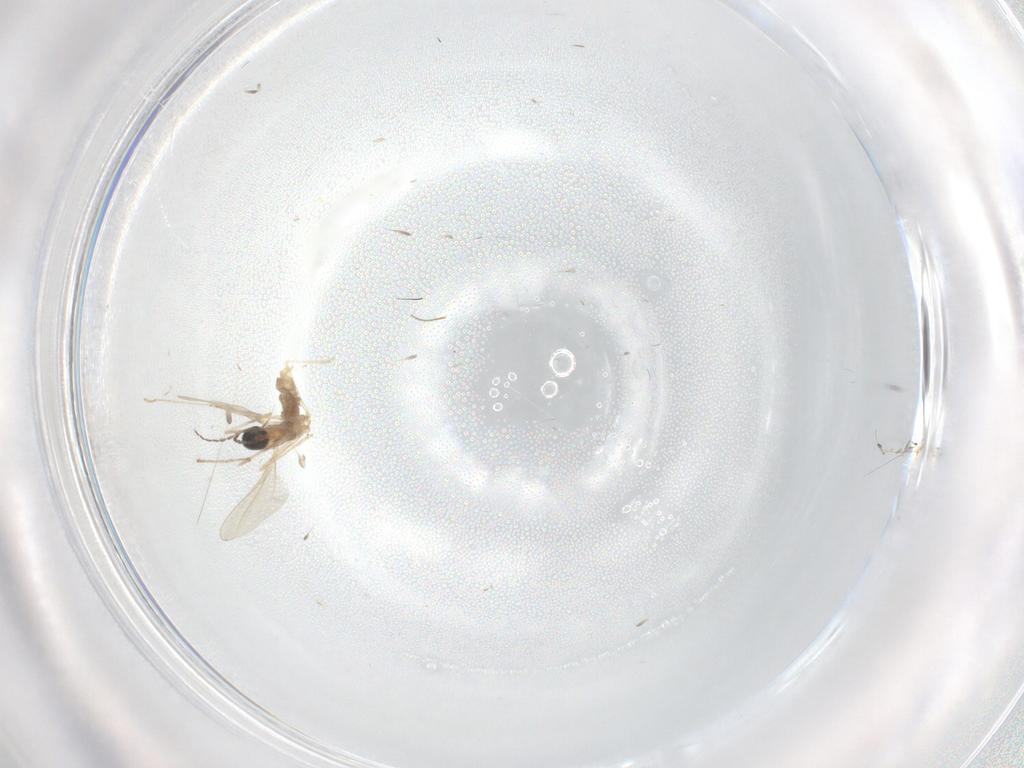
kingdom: Animalia
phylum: Arthropoda
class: Insecta
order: Diptera
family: Cecidomyiidae
